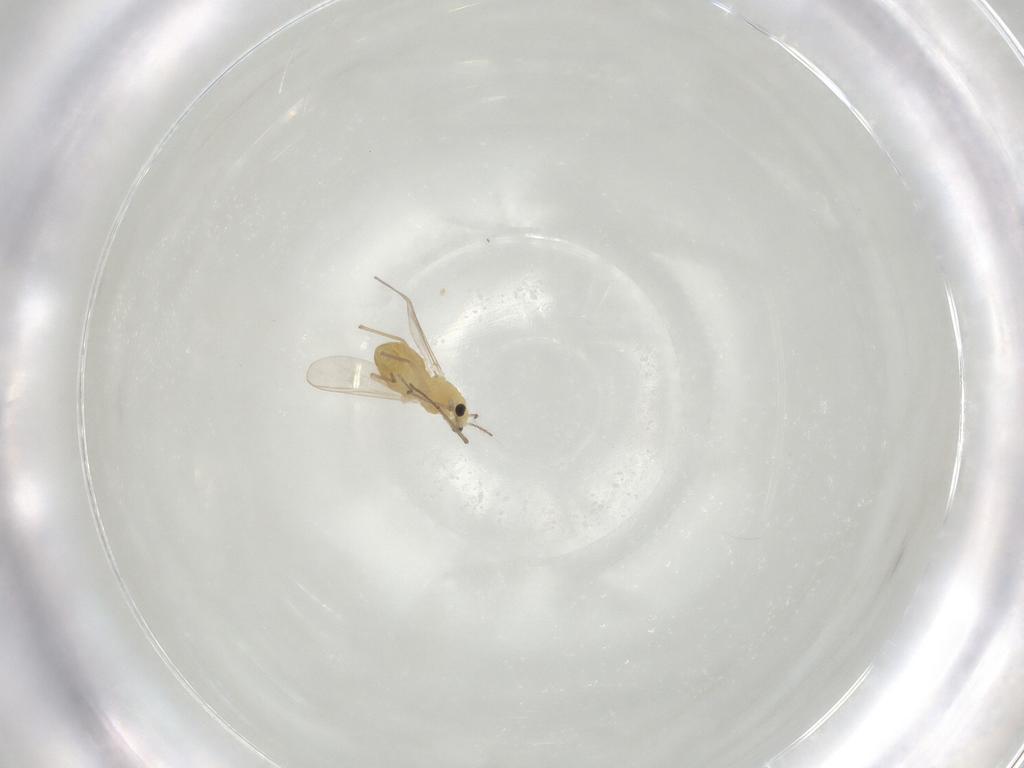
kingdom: Animalia
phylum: Arthropoda
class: Insecta
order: Diptera
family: Chironomidae
